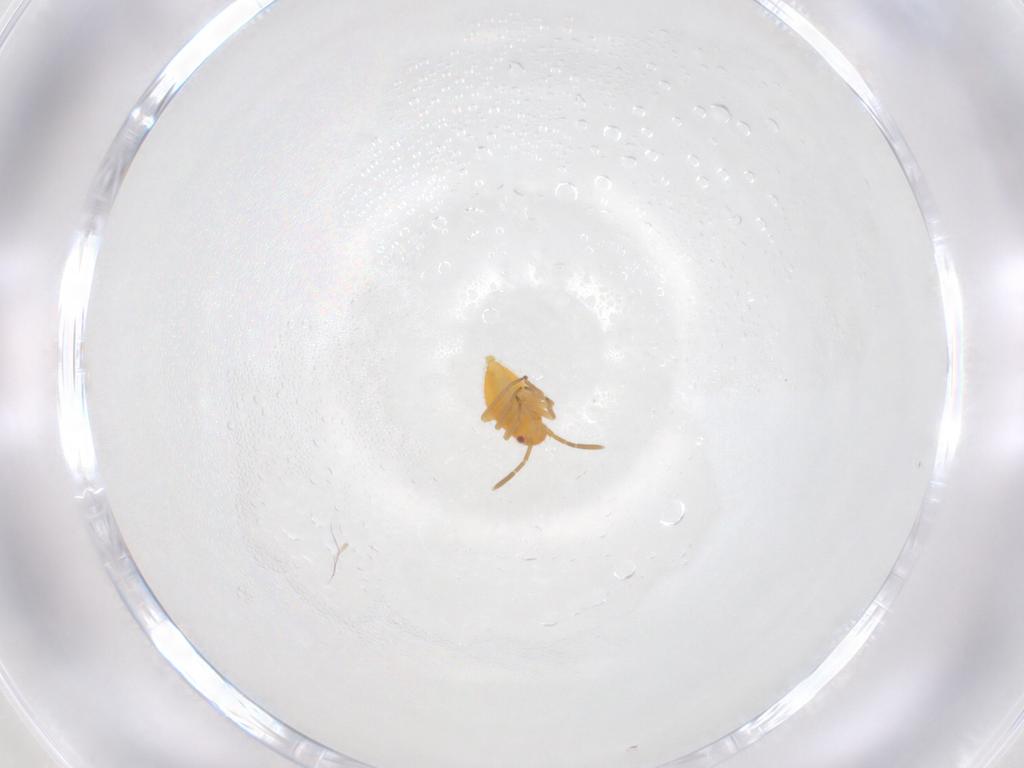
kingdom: Animalia
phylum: Arthropoda
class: Insecta
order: Hemiptera
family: Miridae
